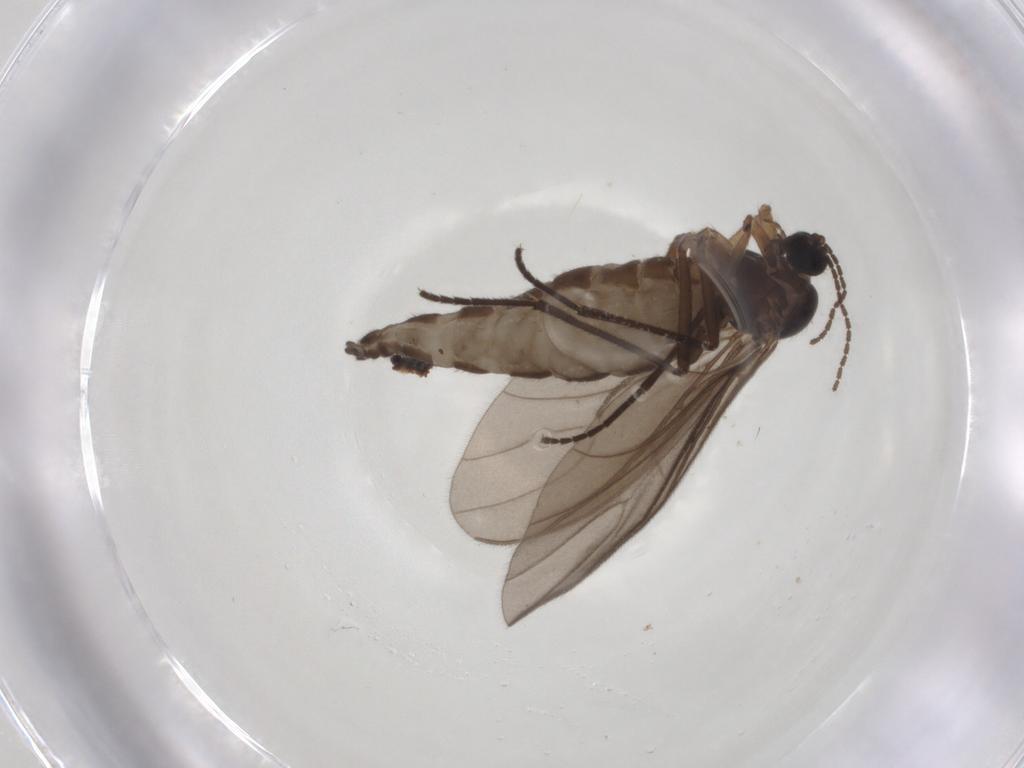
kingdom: Animalia
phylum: Arthropoda
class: Insecta
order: Diptera
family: Sciaridae
